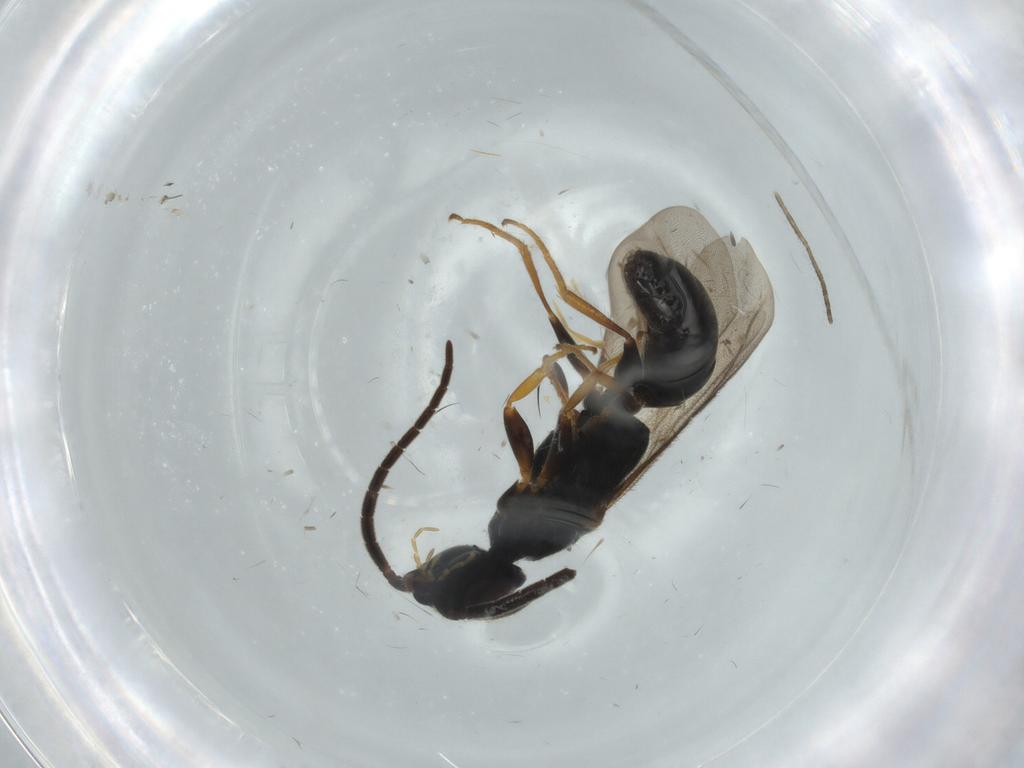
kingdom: Animalia
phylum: Arthropoda
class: Insecta
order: Hymenoptera
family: Bethylidae
